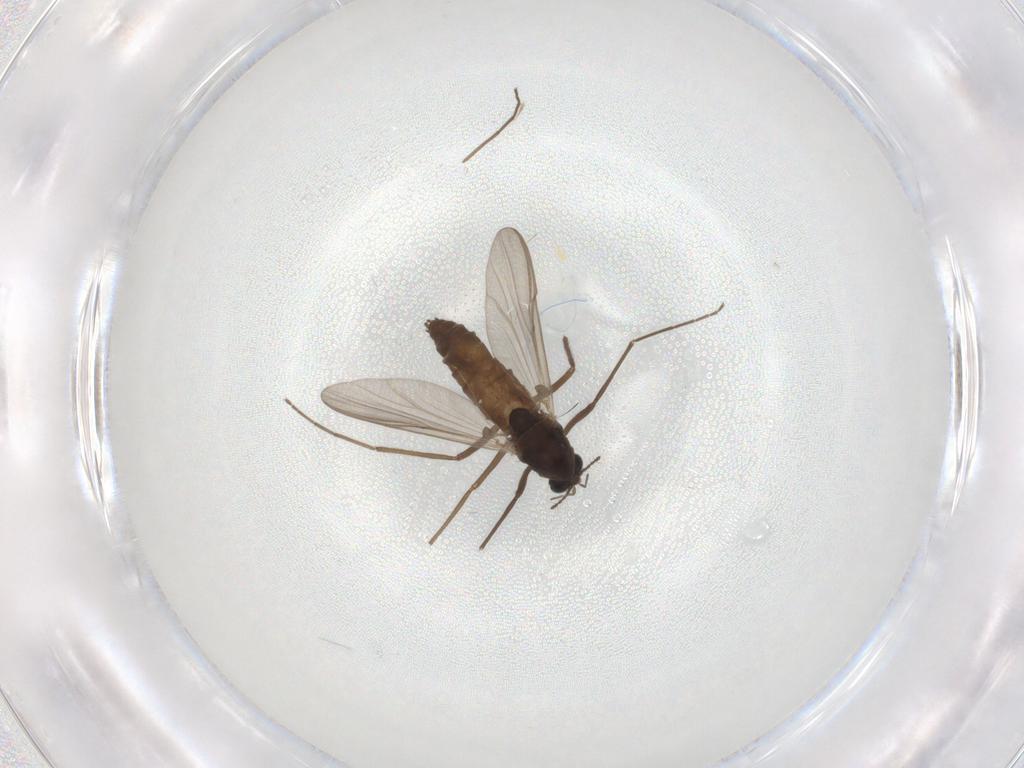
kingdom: Animalia
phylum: Arthropoda
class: Insecta
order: Diptera
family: Chironomidae
